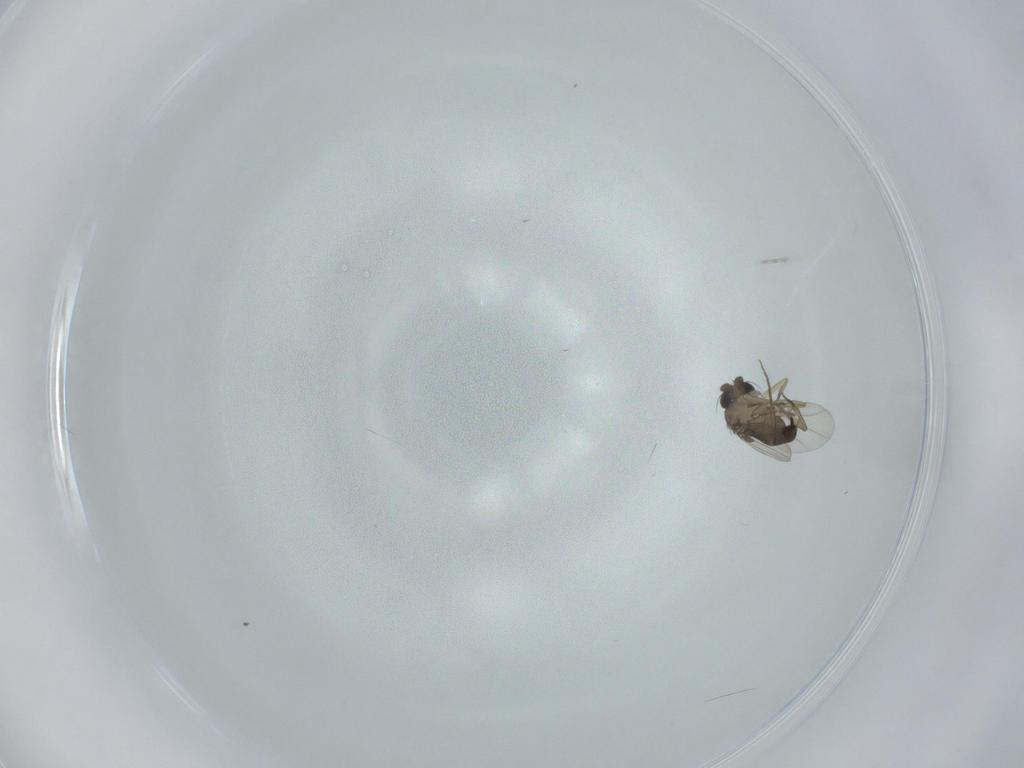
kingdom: Animalia
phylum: Arthropoda
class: Insecta
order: Diptera
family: Phoridae
